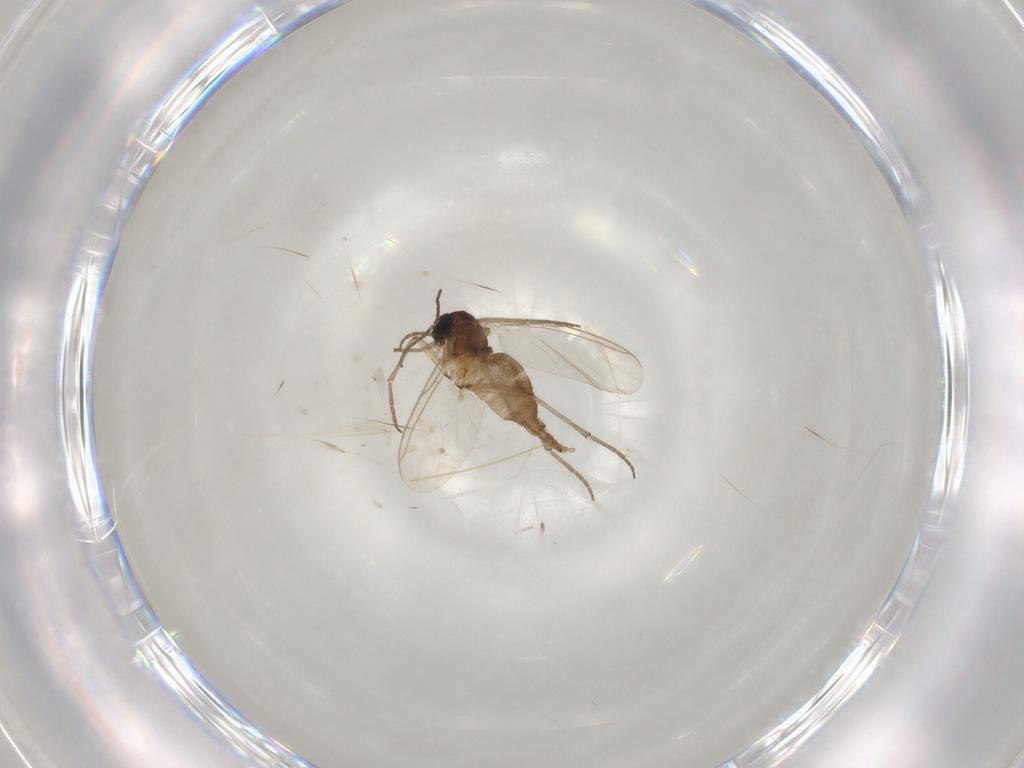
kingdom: Animalia
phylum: Arthropoda
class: Insecta
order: Diptera
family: Sciaridae
